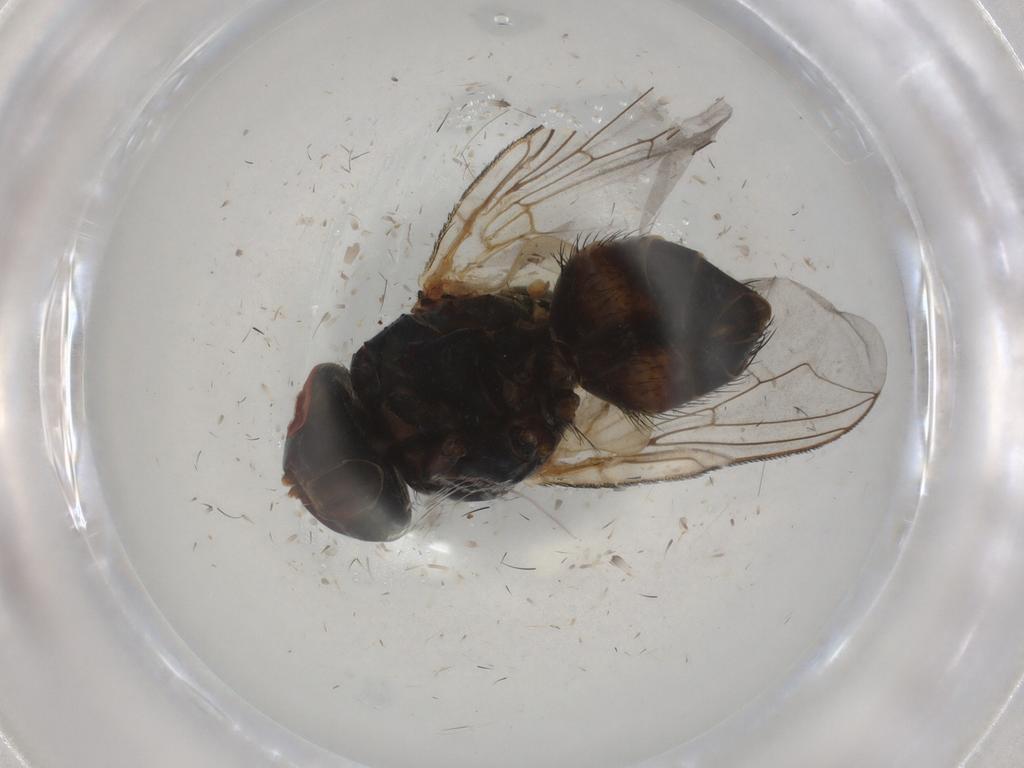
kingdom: Animalia
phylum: Arthropoda
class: Insecta
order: Diptera
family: Sarcophagidae
